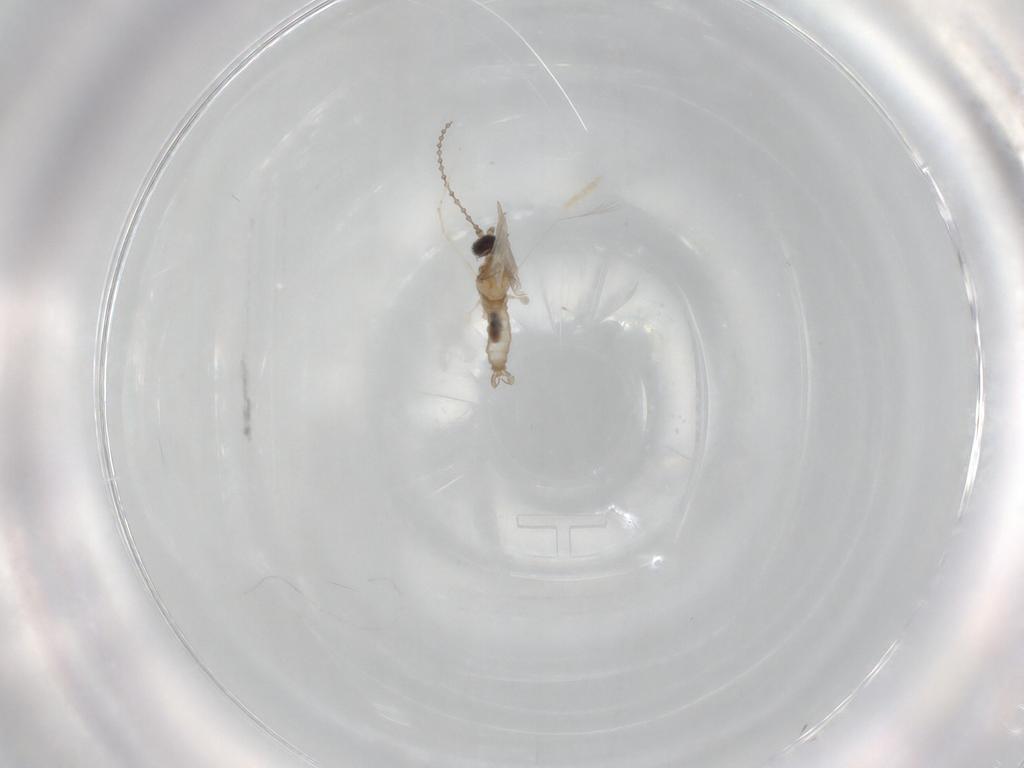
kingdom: Animalia
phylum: Arthropoda
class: Insecta
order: Diptera
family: Cecidomyiidae
